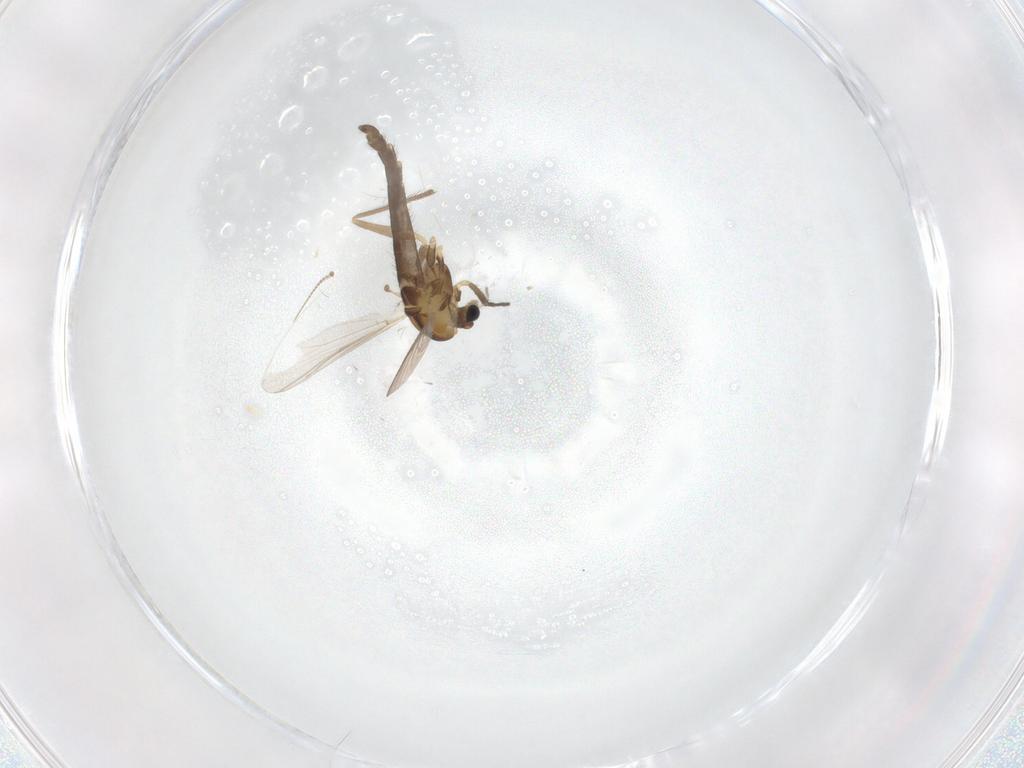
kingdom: Animalia
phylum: Arthropoda
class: Insecta
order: Diptera
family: Chironomidae
